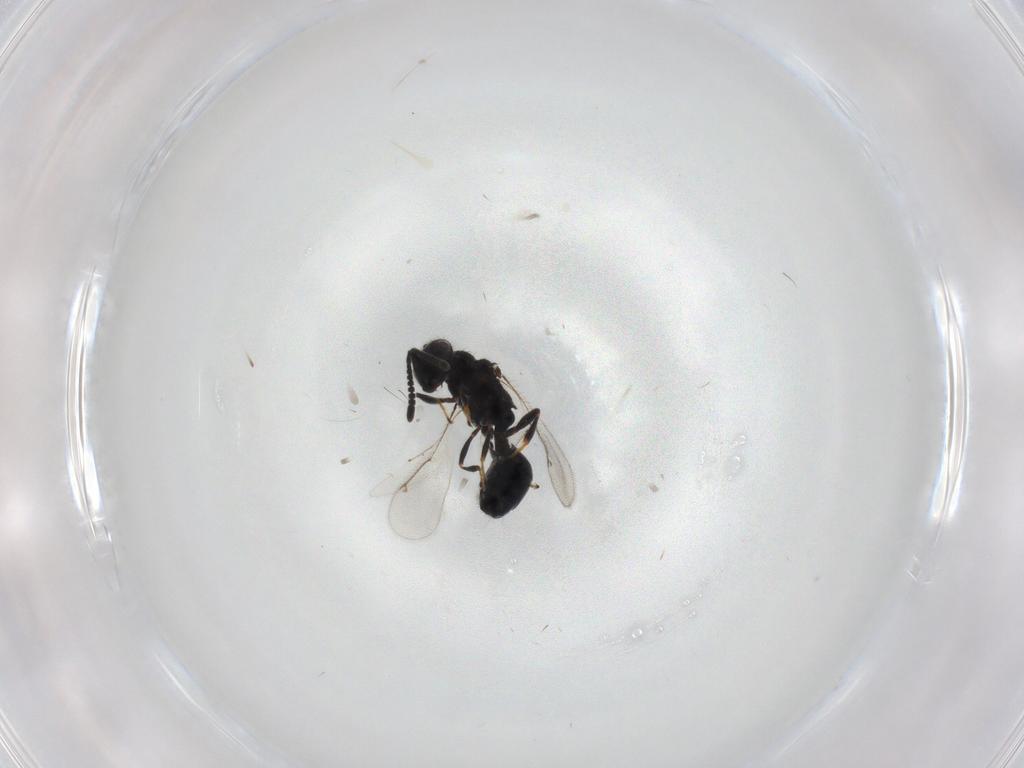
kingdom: Animalia
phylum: Arthropoda
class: Insecta
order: Hymenoptera
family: Spalangiidae
